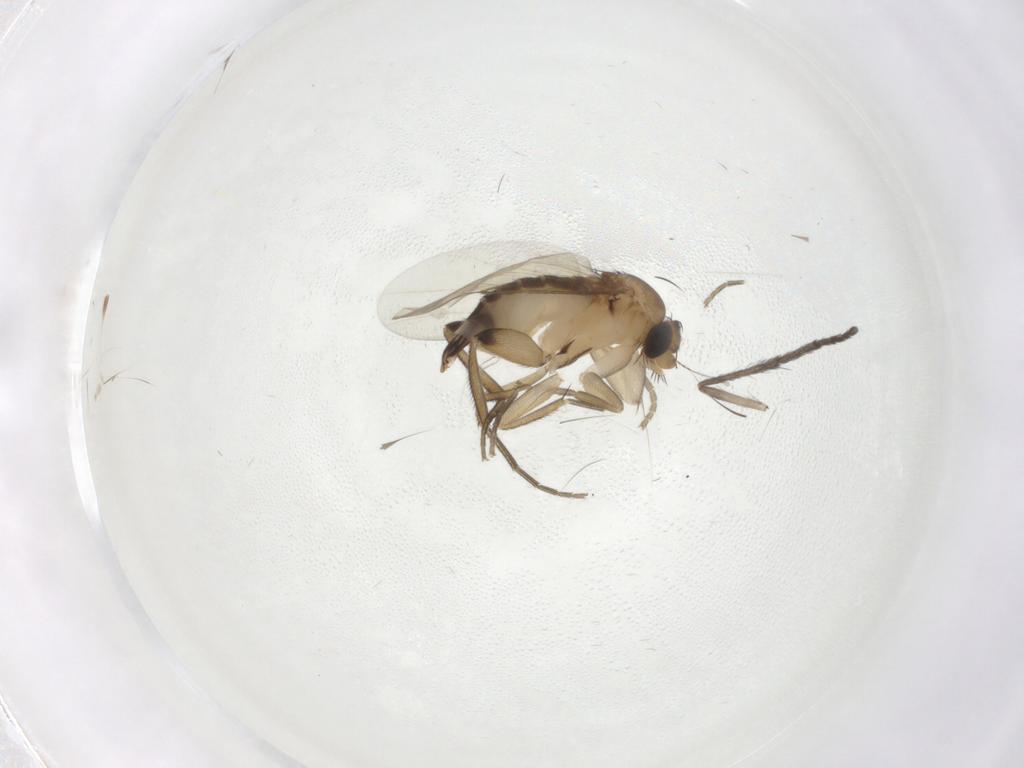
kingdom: Animalia
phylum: Arthropoda
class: Insecta
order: Diptera
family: Phoridae
